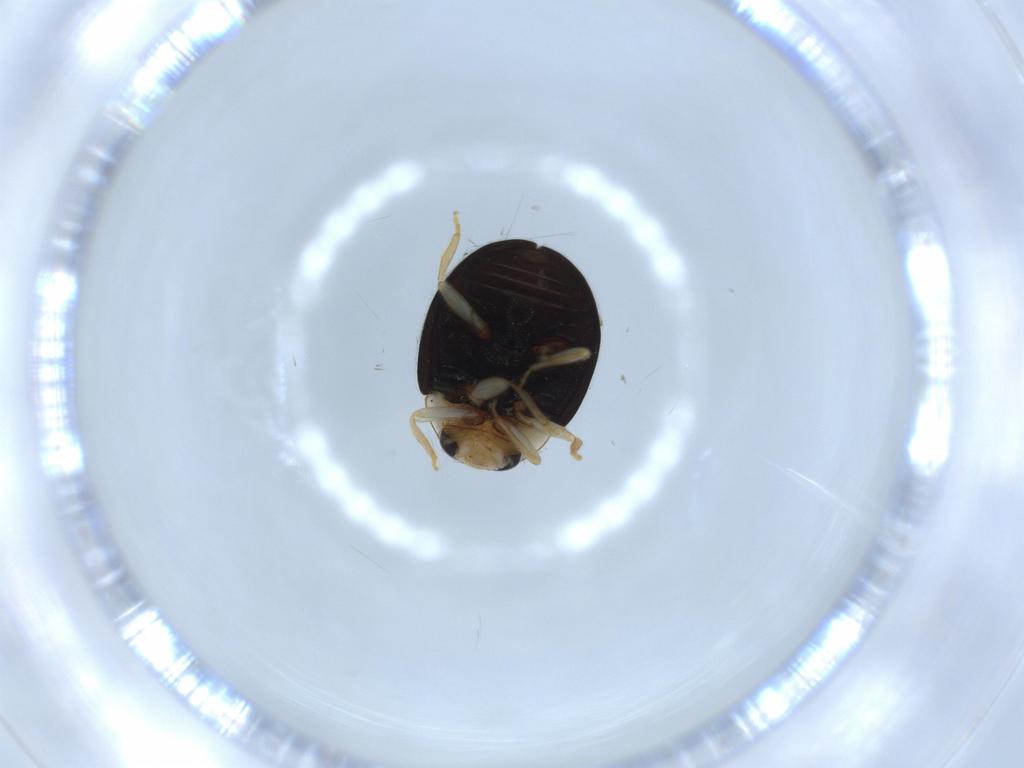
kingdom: Animalia
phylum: Arthropoda
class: Insecta
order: Coleoptera
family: Coccinellidae
